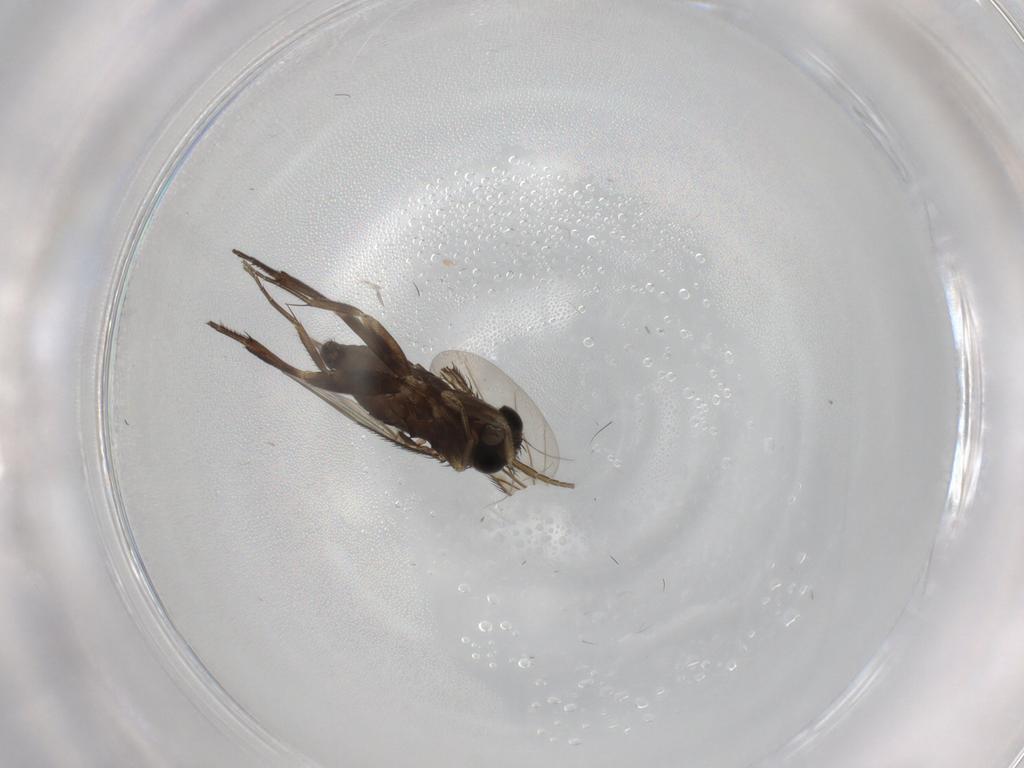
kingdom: Animalia
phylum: Arthropoda
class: Insecta
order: Diptera
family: Phoridae
